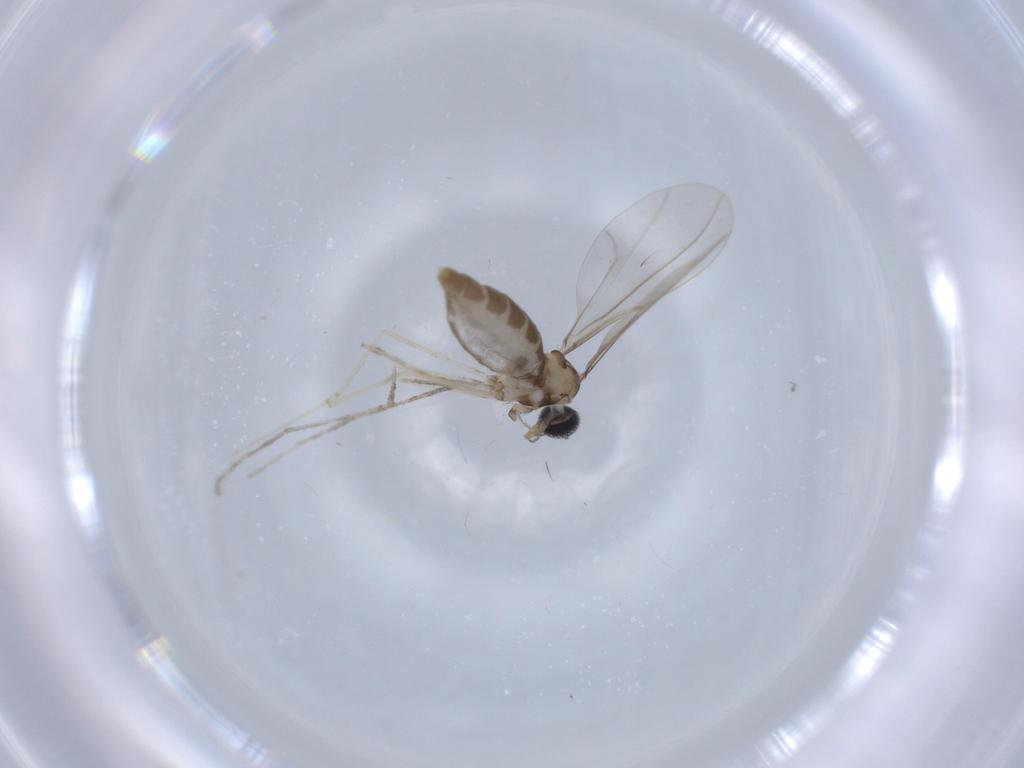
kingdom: Animalia
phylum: Arthropoda
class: Insecta
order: Diptera
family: Cecidomyiidae
